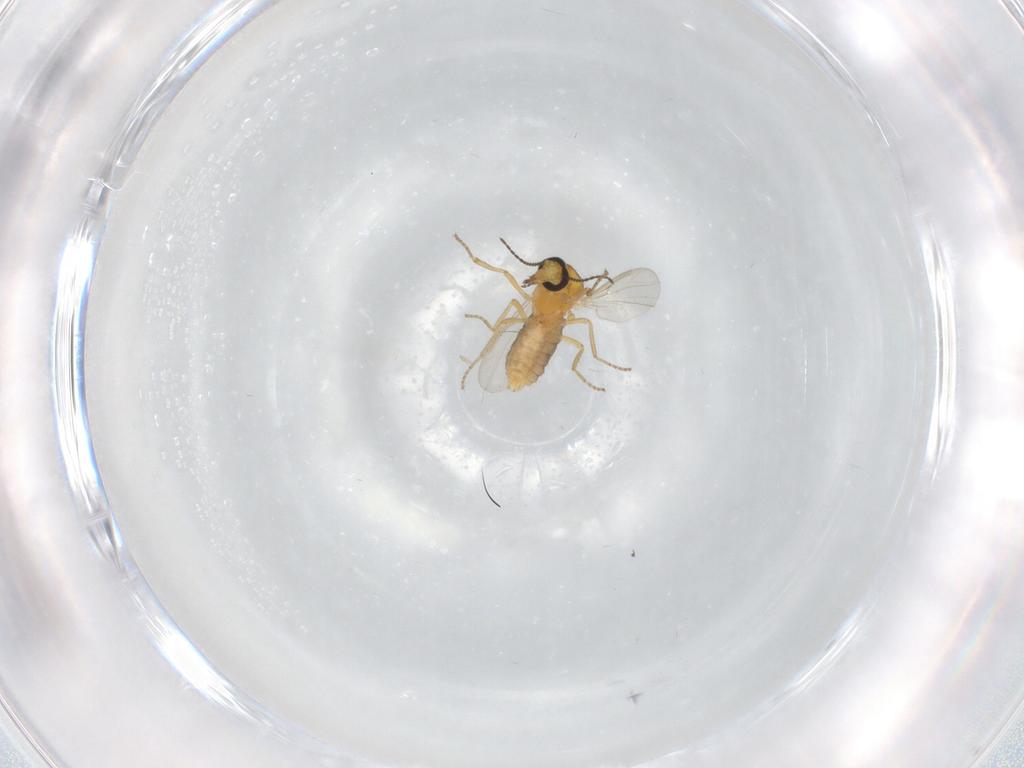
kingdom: Animalia
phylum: Arthropoda
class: Insecta
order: Diptera
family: Ceratopogonidae
